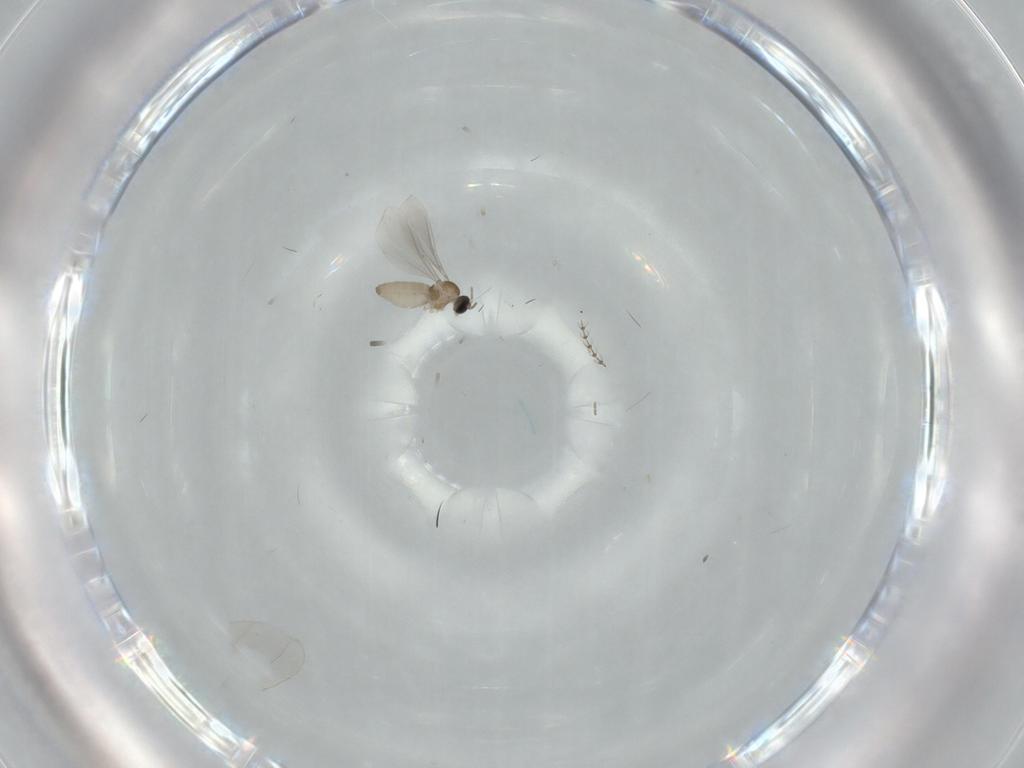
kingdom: Animalia
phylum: Arthropoda
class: Insecta
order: Diptera
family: Cecidomyiidae
